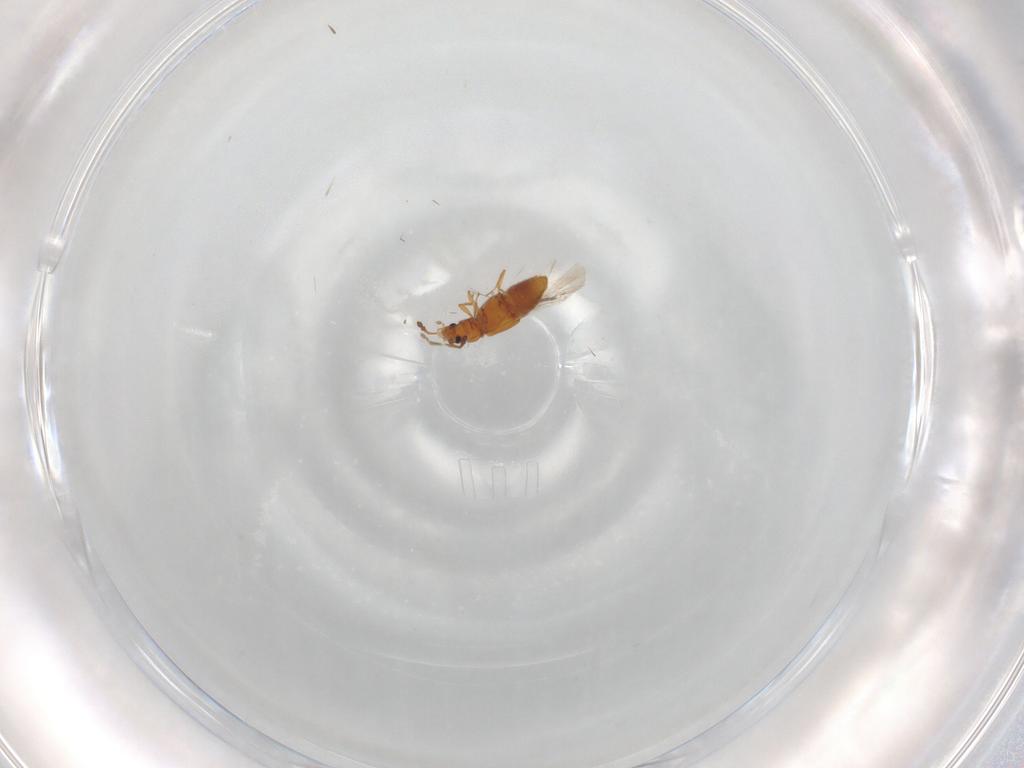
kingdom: Animalia
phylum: Arthropoda
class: Insecta
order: Coleoptera
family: Staphylinidae
